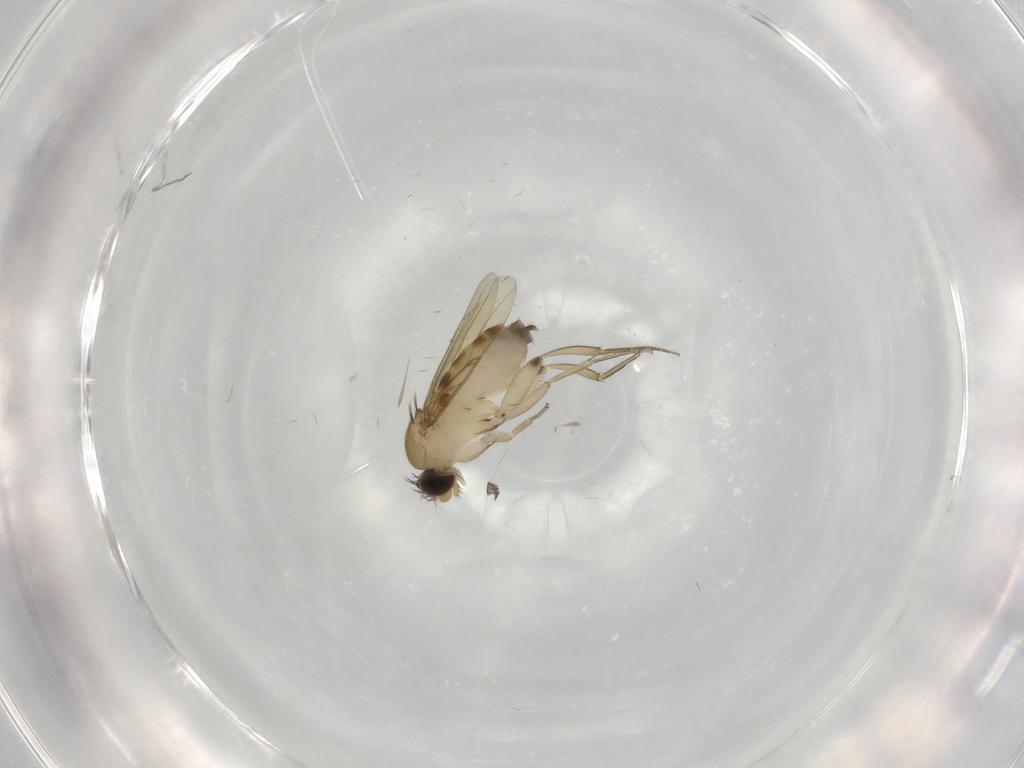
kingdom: Animalia
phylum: Arthropoda
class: Insecta
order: Diptera
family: Phoridae
